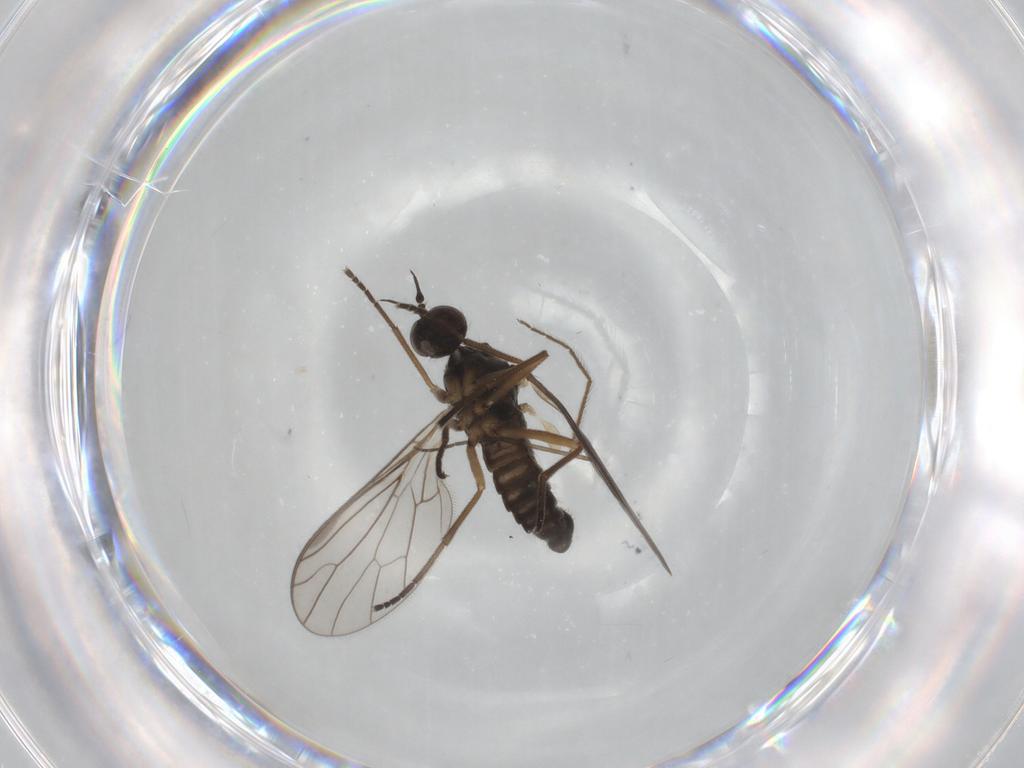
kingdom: Animalia
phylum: Arthropoda
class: Insecta
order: Diptera
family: Empididae
